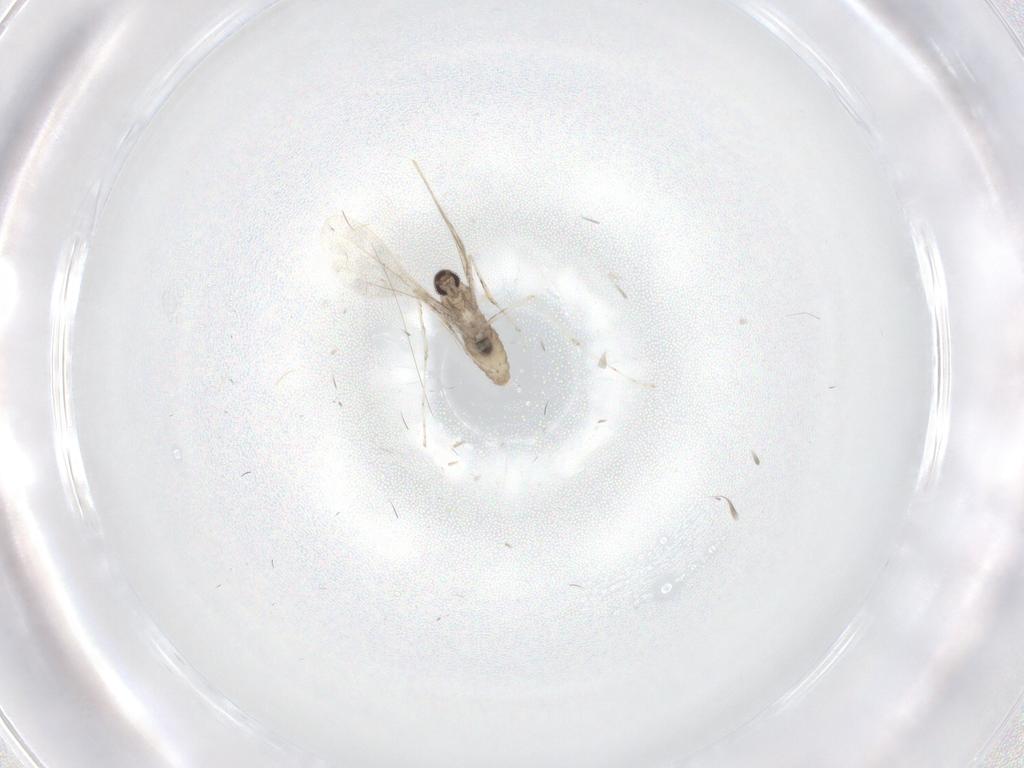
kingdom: Animalia
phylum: Arthropoda
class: Insecta
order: Diptera
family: Cecidomyiidae
